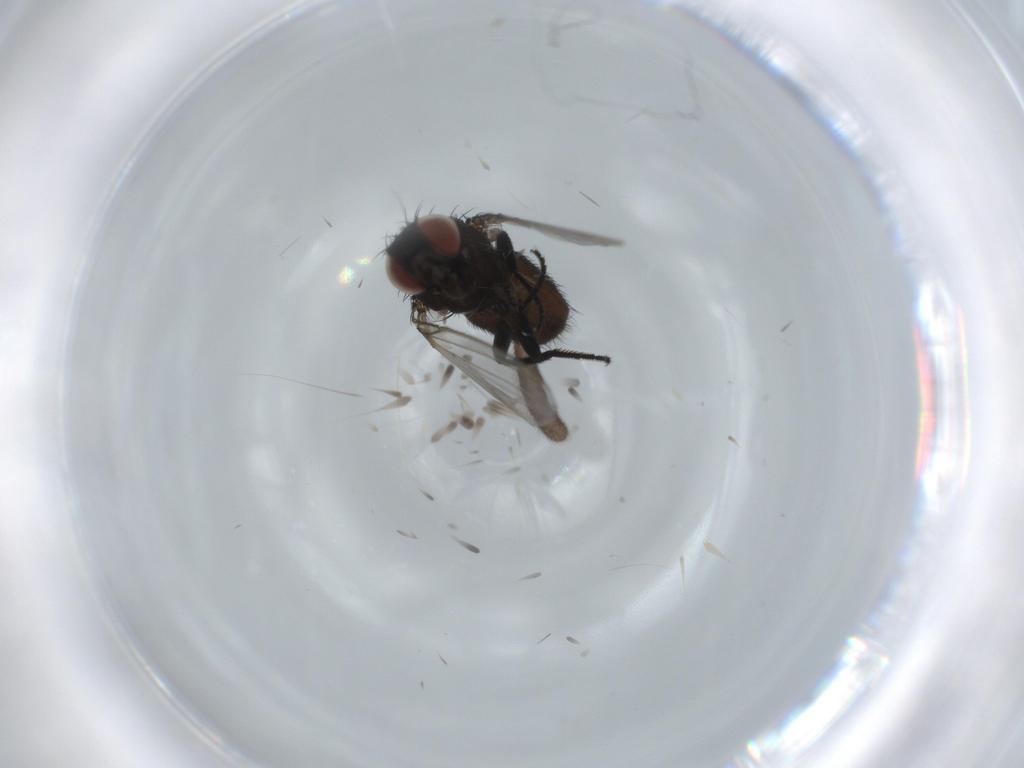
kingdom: Animalia
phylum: Arthropoda
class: Insecta
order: Diptera
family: Milichiidae
